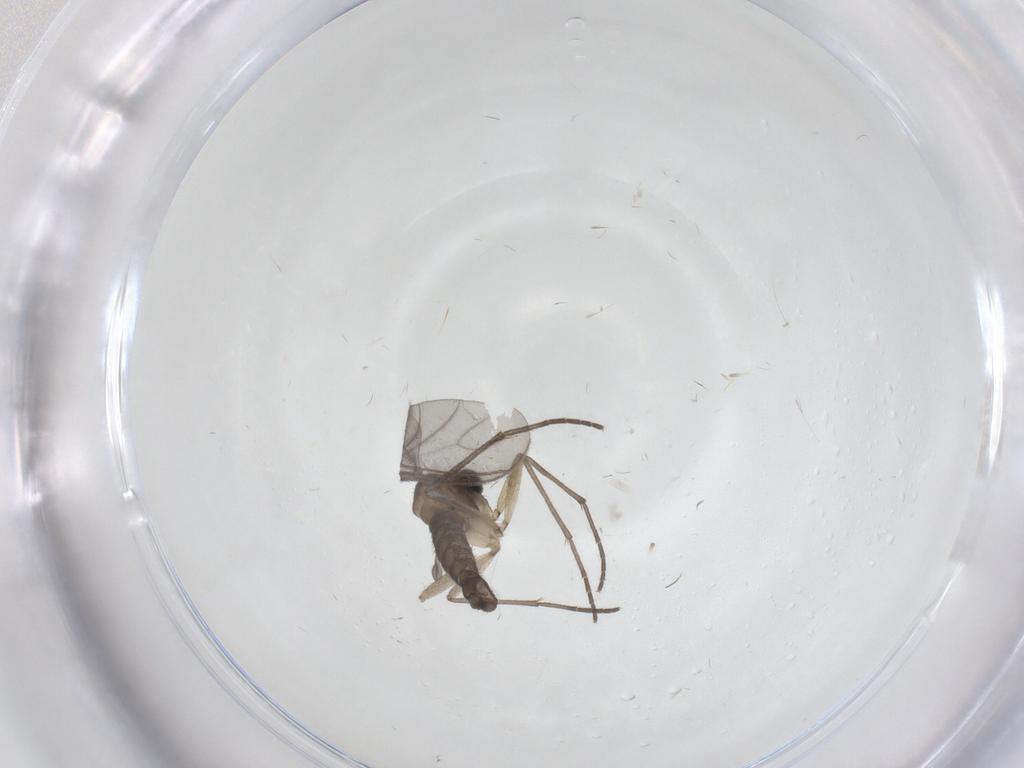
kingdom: Animalia
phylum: Arthropoda
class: Insecta
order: Diptera
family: Sciaridae
